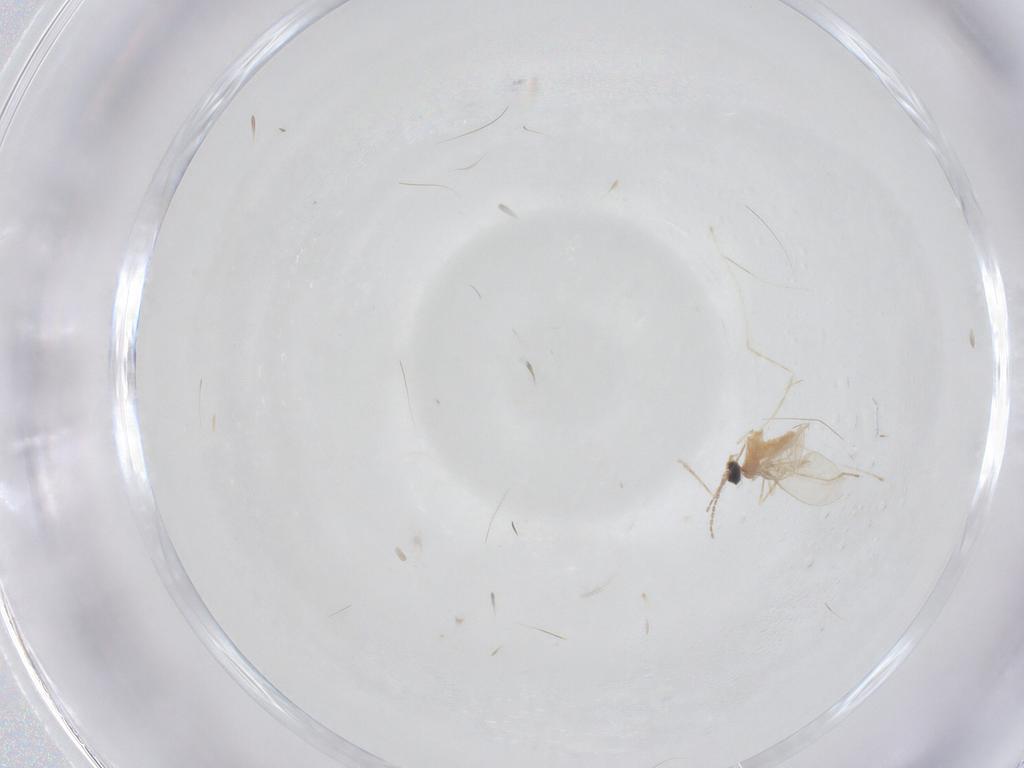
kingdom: Animalia
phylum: Arthropoda
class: Insecta
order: Diptera
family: Cecidomyiidae
